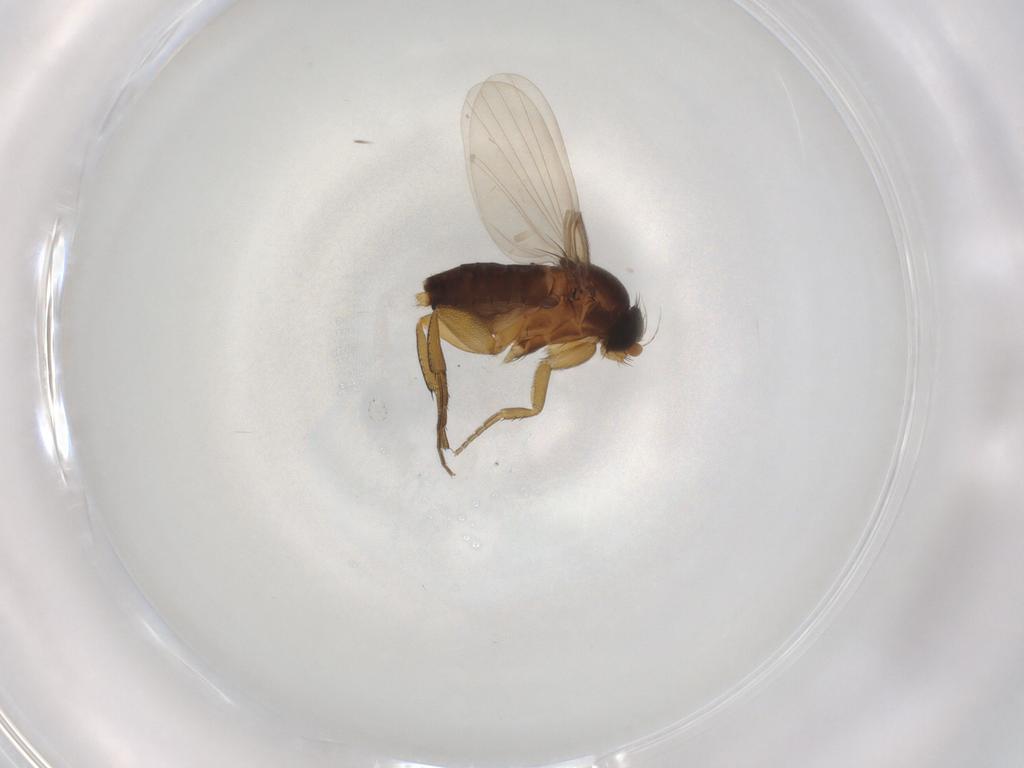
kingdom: Animalia
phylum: Arthropoda
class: Insecta
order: Diptera
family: Phoridae
